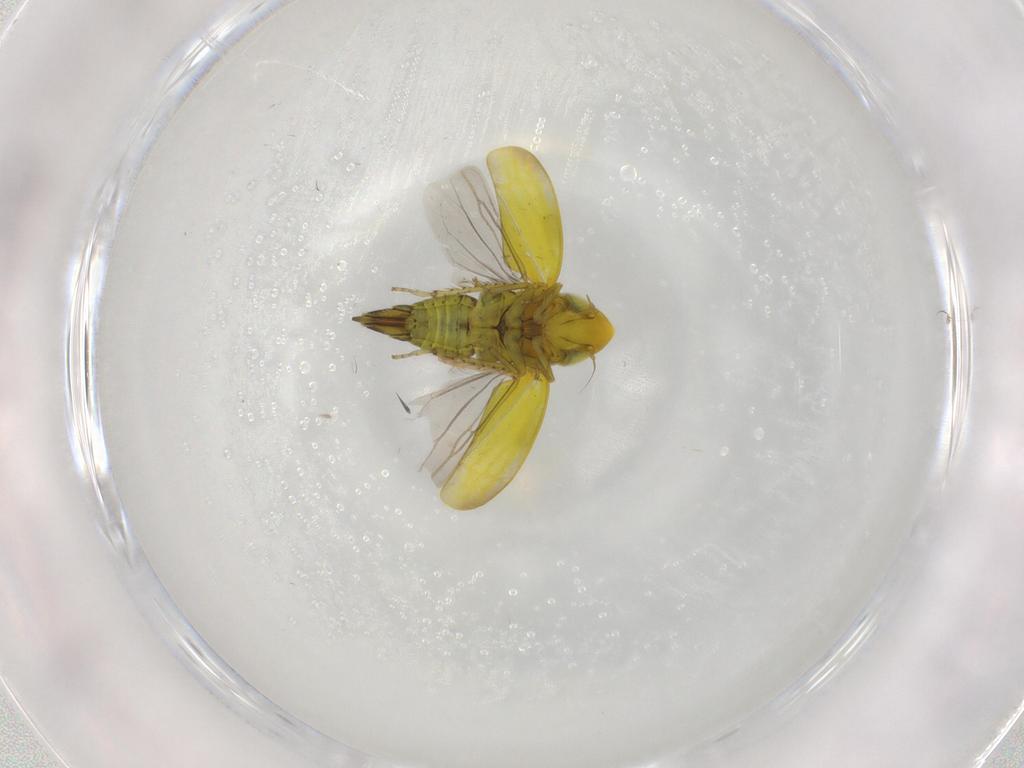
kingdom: Animalia
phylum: Arthropoda
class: Insecta
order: Hemiptera
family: Cicadellidae
